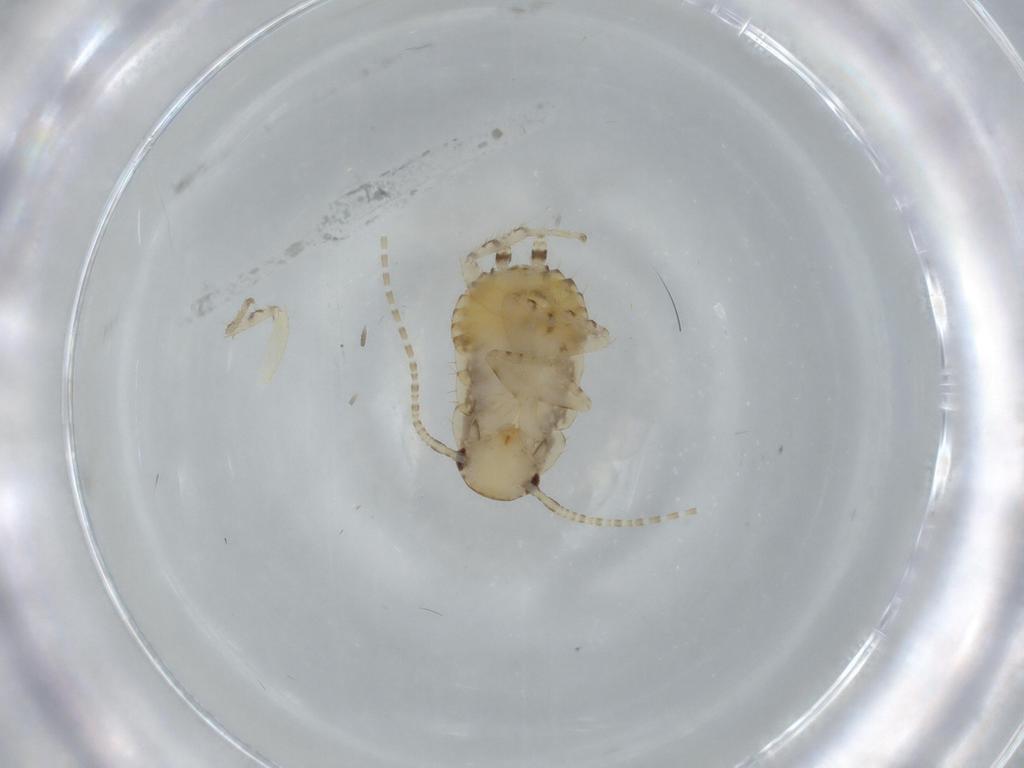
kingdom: Animalia
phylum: Arthropoda
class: Insecta
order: Blattodea
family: Ectobiidae
